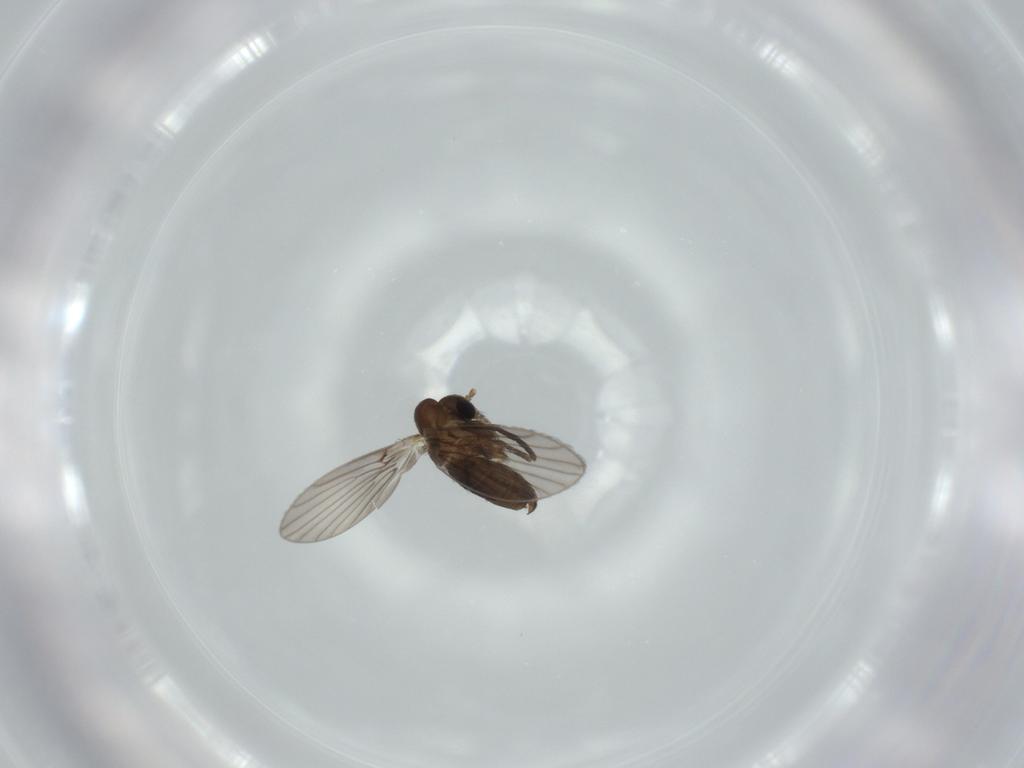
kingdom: Animalia
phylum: Arthropoda
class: Insecta
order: Diptera
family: Psychodidae
